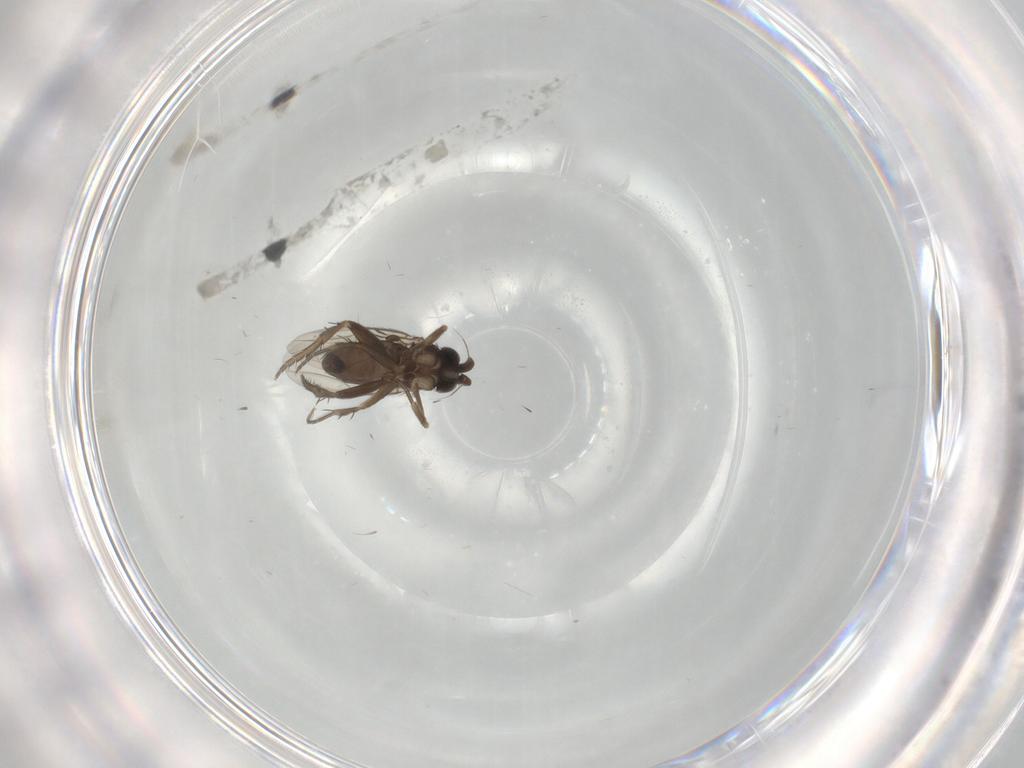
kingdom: Animalia
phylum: Arthropoda
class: Insecta
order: Diptera
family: Phoridae
